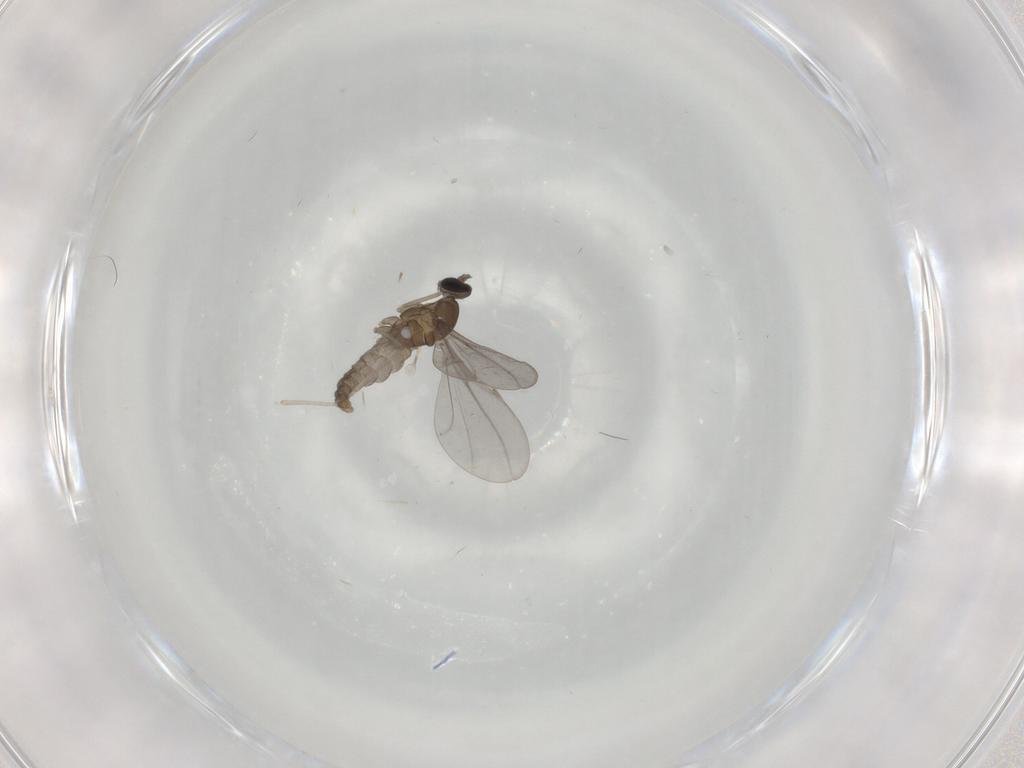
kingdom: Animalia
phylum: Arthropoda
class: Insecta
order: Diptera
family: Cecidomyiidae
